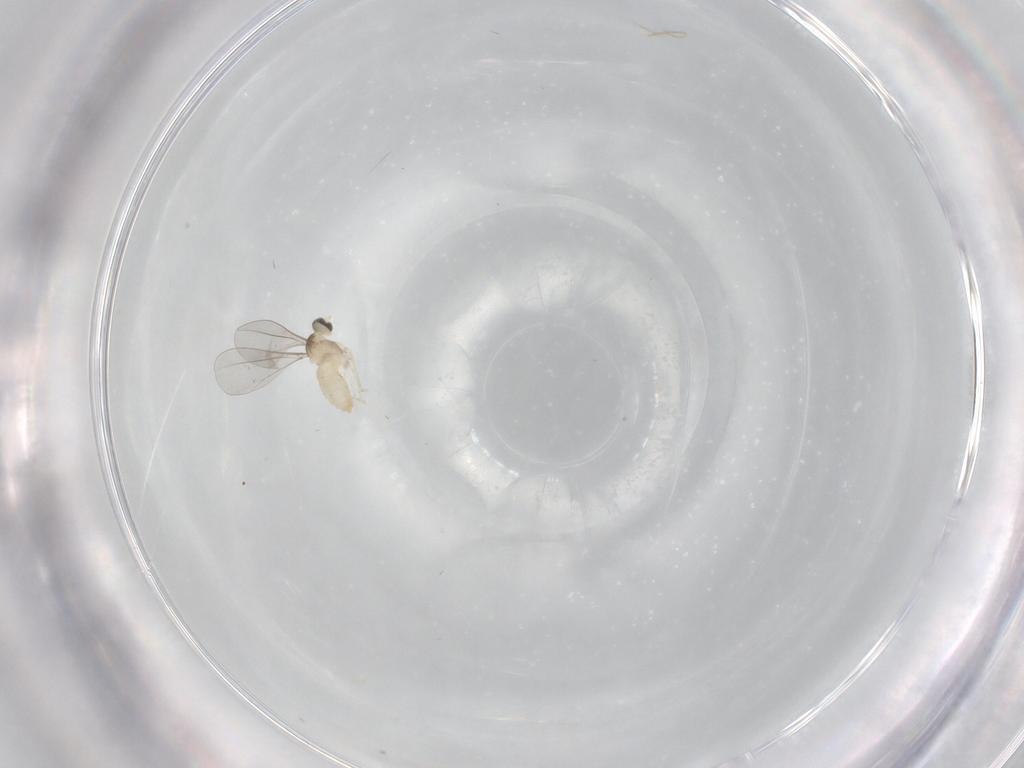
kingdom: Animalia
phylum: Arthropoda
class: Insecta
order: Diptera
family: Cecidomyiidae
